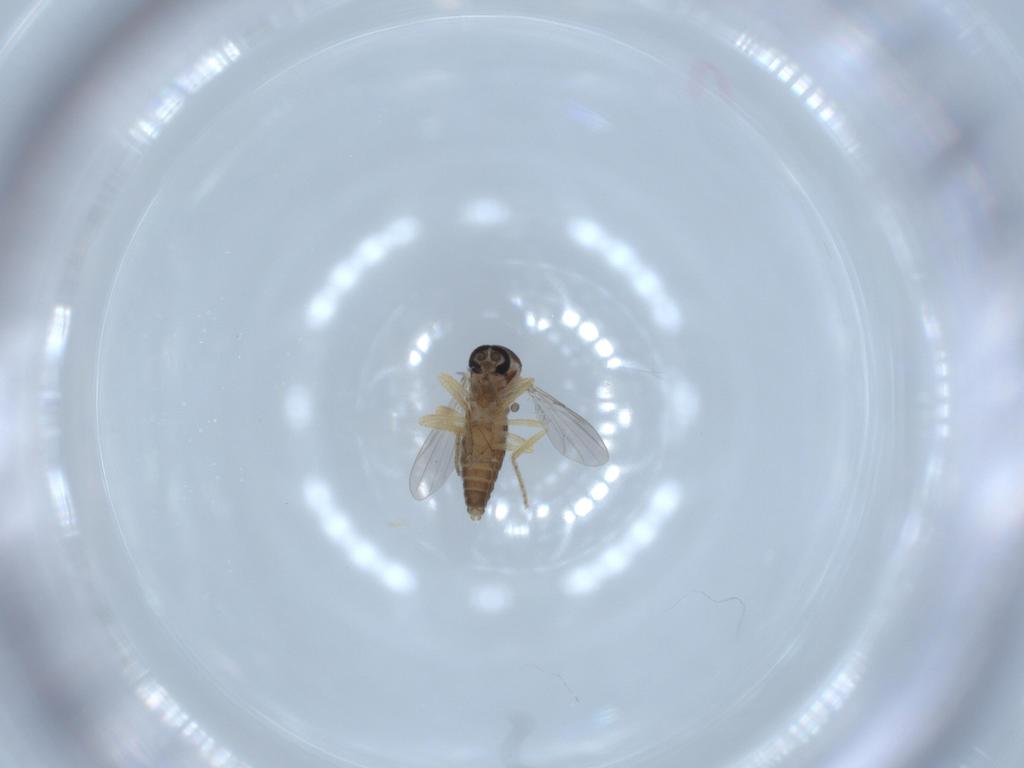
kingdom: Animalia
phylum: Arthropoda
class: Insecta
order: Diptera
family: Ceratopogonidae
